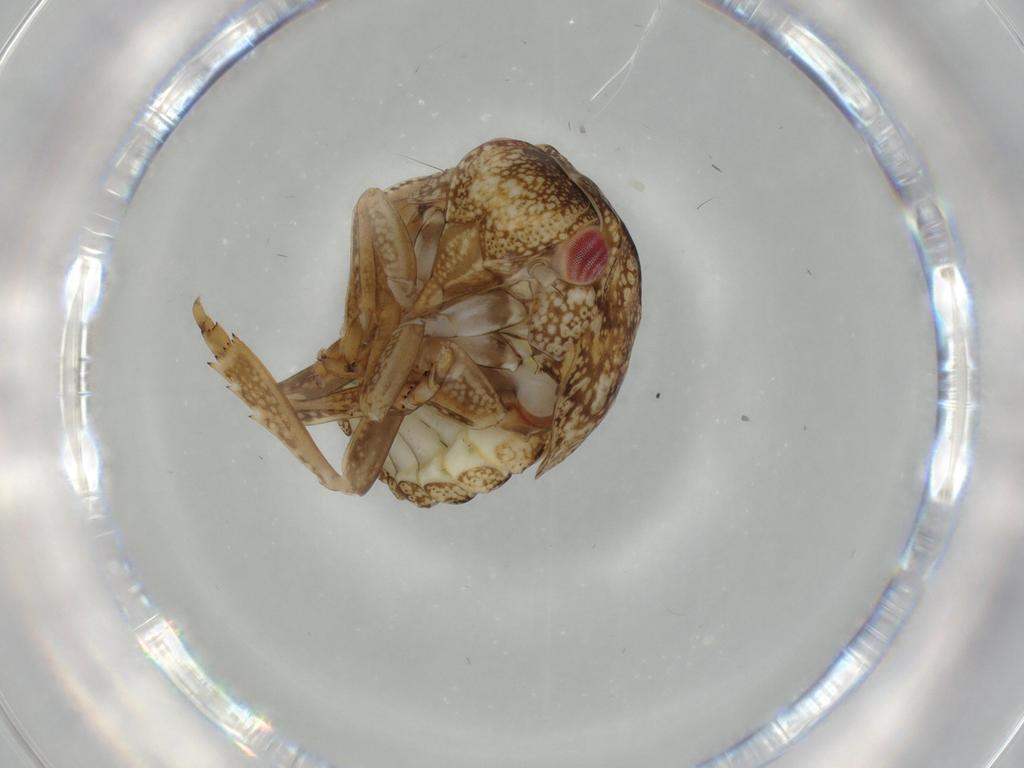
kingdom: Animalia
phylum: Arthropoda
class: Insecta
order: Hemiptera
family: Acanaloniidae
